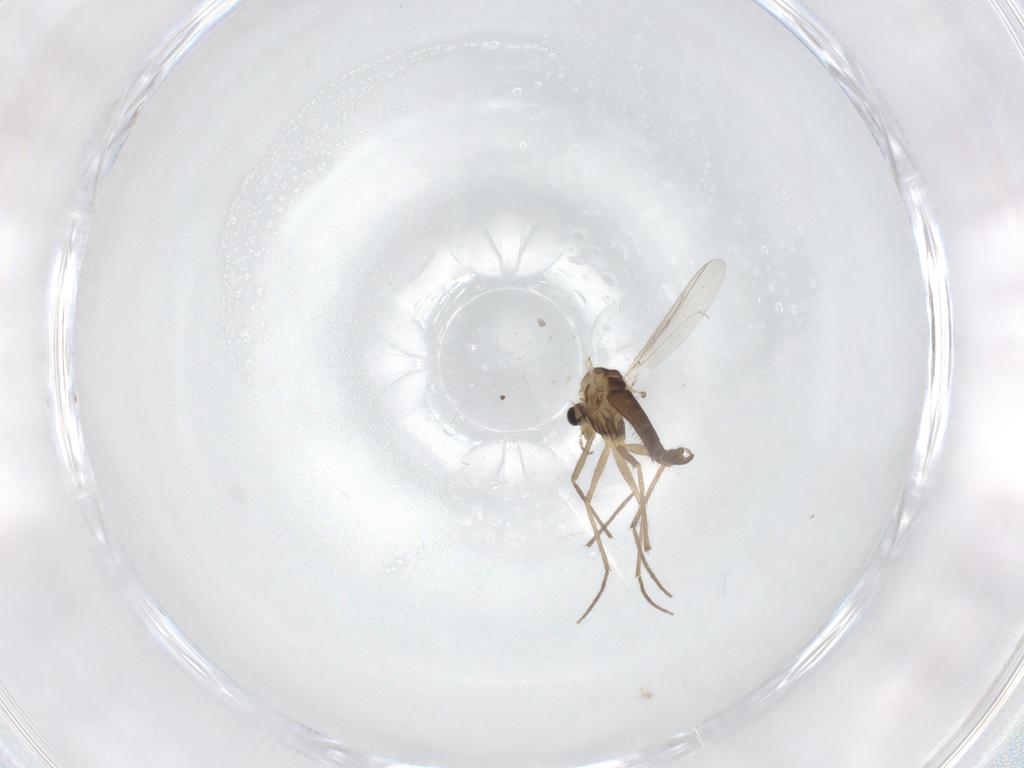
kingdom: Animalia
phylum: Arthropoda
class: Insecta
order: Diptera
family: Chironomidae
